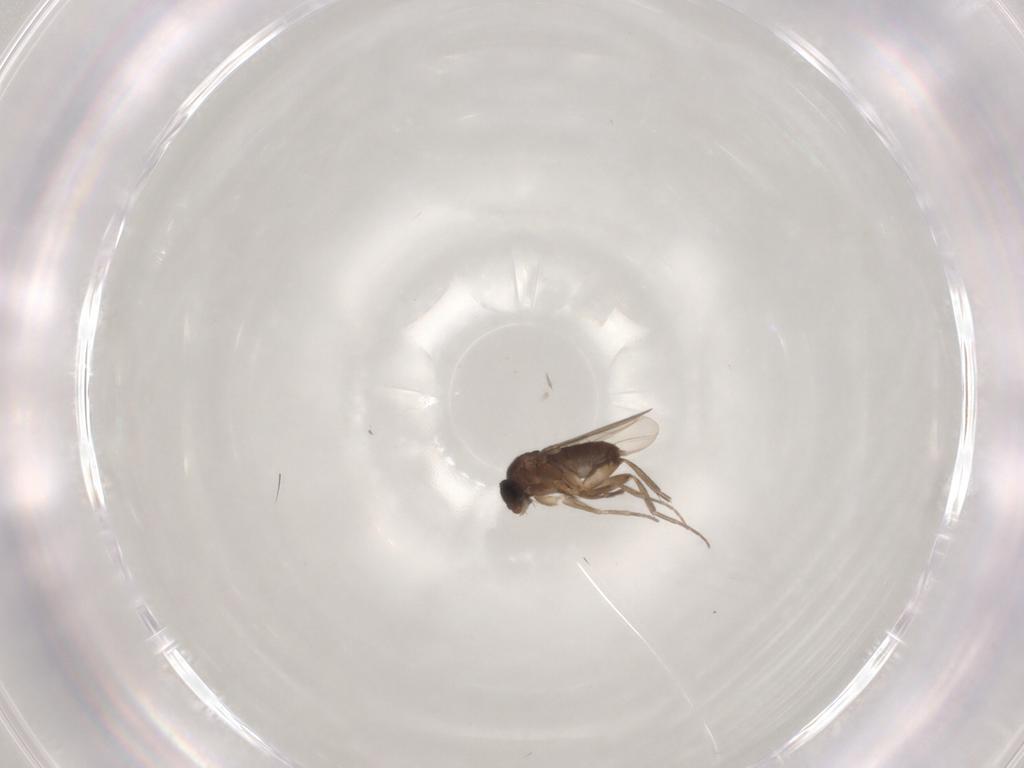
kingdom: Animalia
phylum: Arthropoda
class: Insecta
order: Diptera
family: Phoridae
